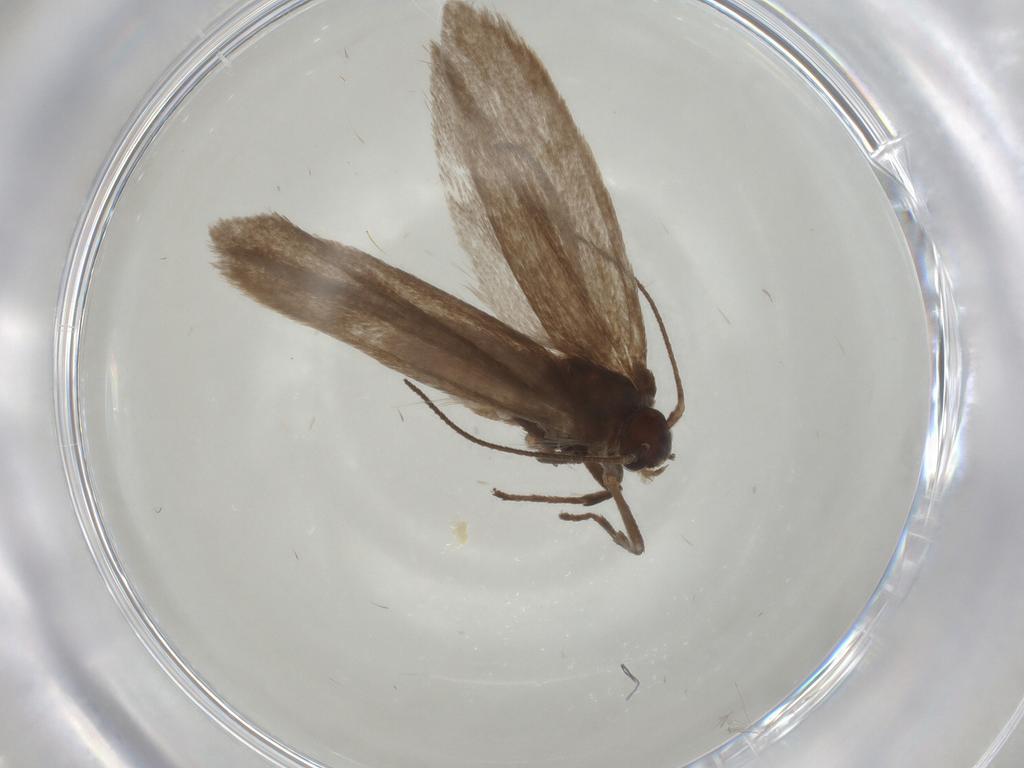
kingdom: Animalia
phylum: Arthropoda
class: Insecta
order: Lepidoptera
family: Limacodidae
